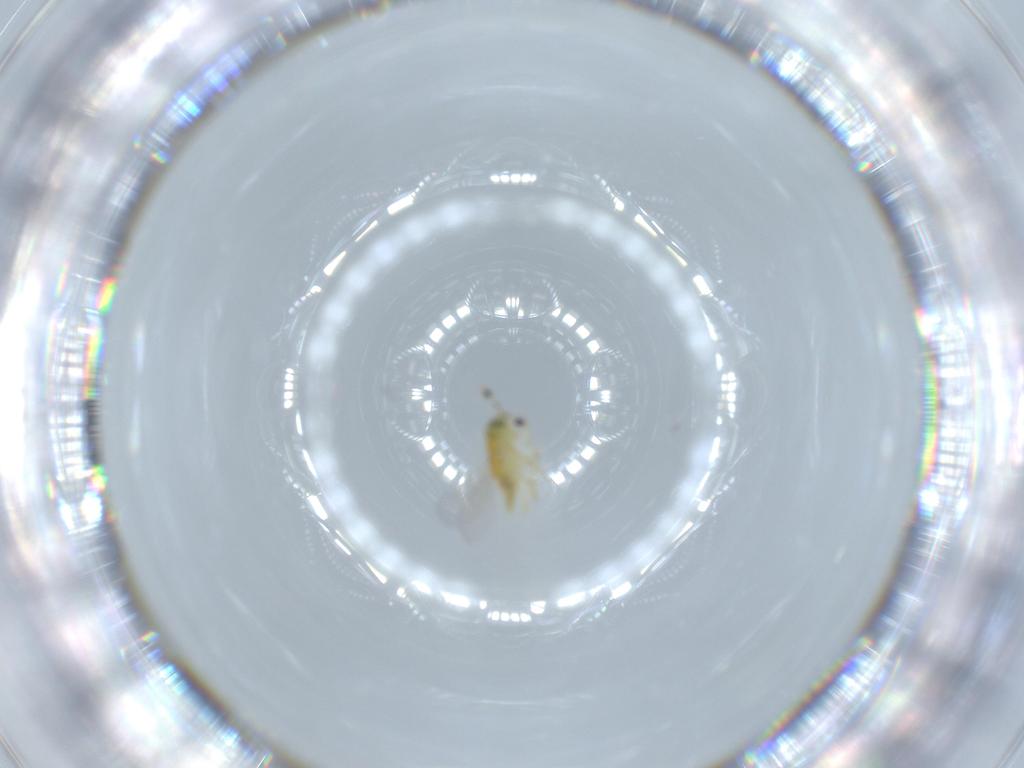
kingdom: Animalia
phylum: Arthropoda
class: Insecta
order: Hymenoptera
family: Encyrtidae
